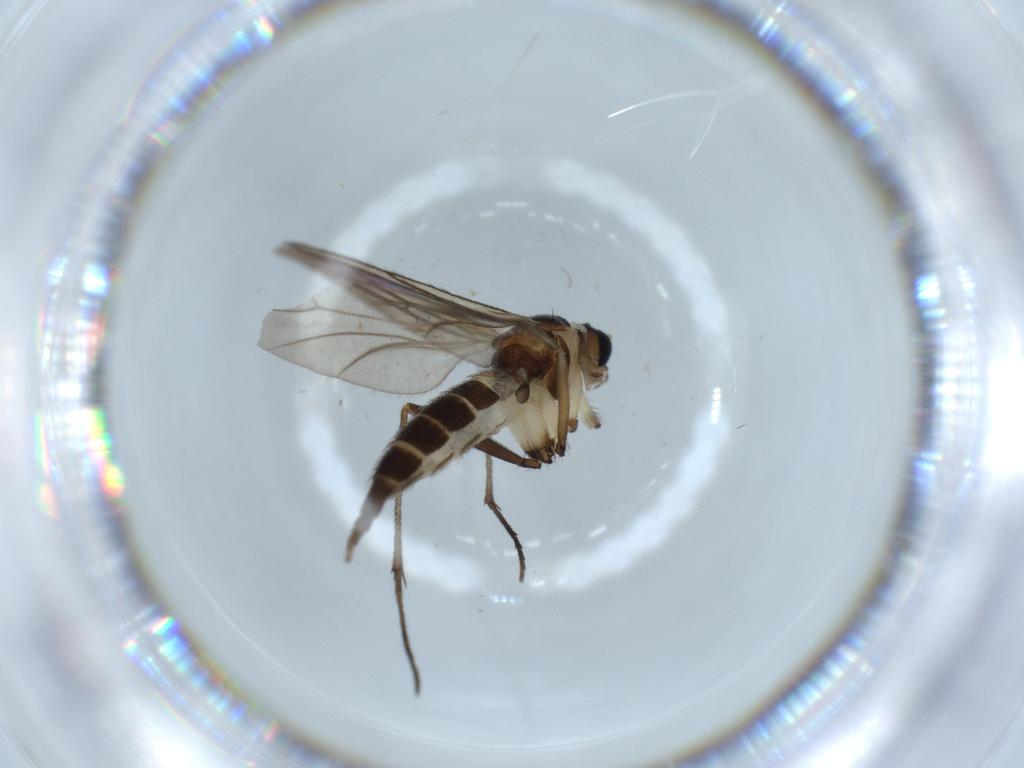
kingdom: Animalia
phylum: Arthropoda
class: Insecta
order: Diptera
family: Sciaridae
